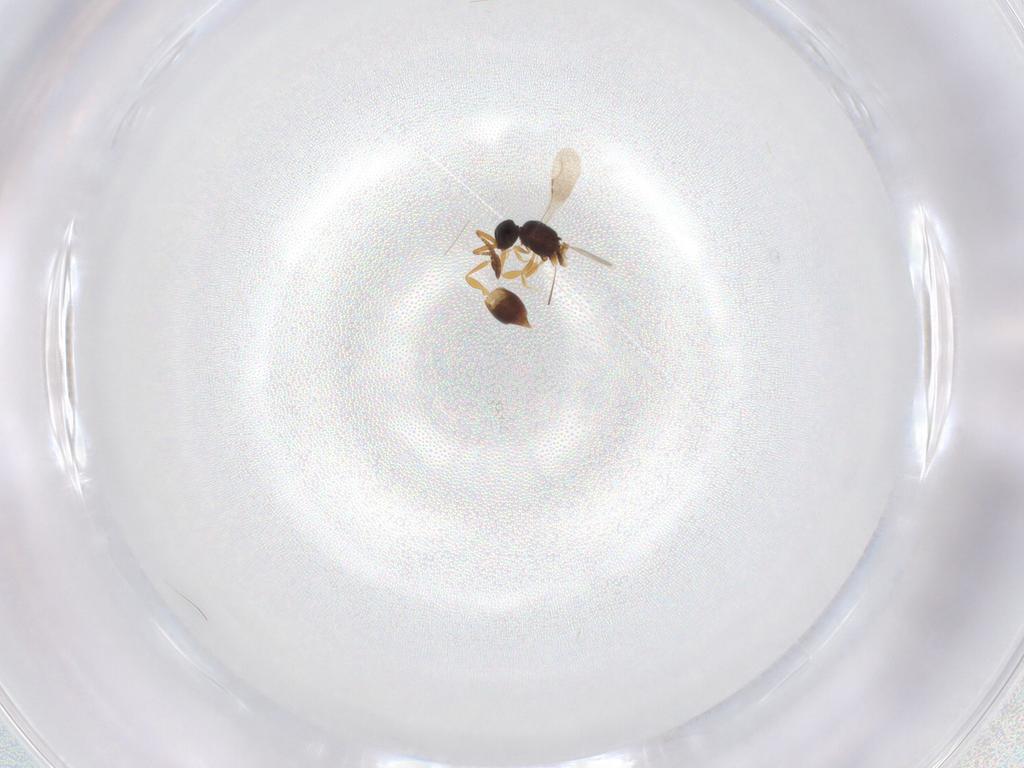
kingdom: Animalia
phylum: Arthropoda
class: Insecta
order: Hymenoptera
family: Ceraphronidae
